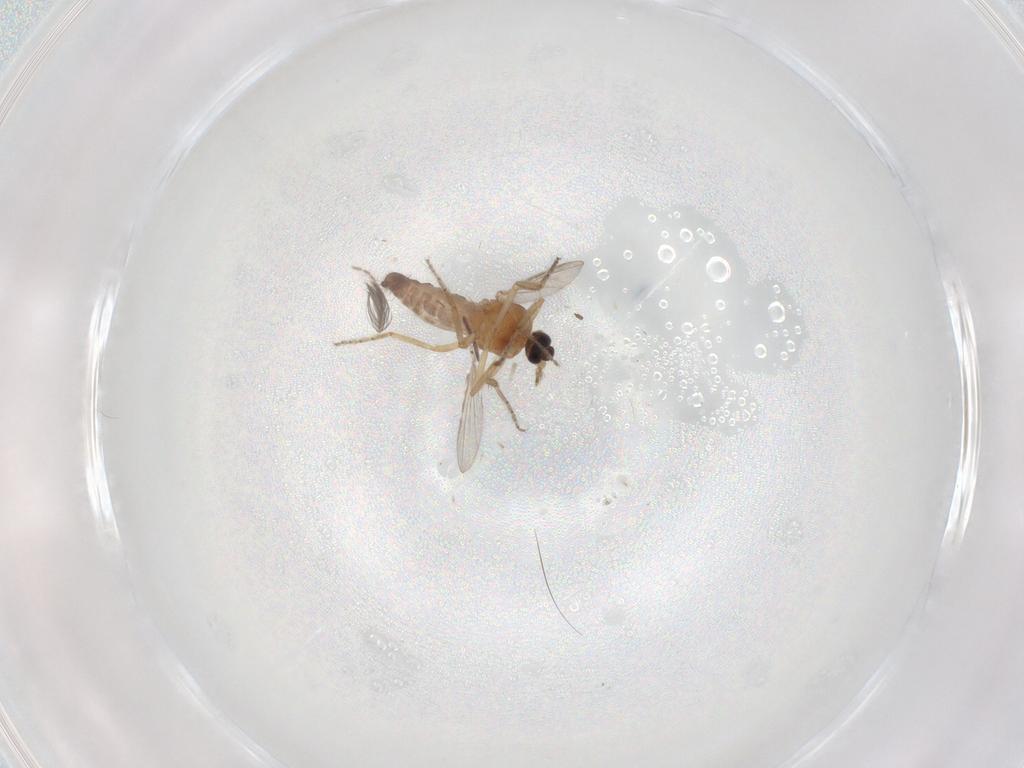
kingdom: Animalia
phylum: Arthropoda
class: Insecta
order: Diptera
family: Ceratopogonidae
